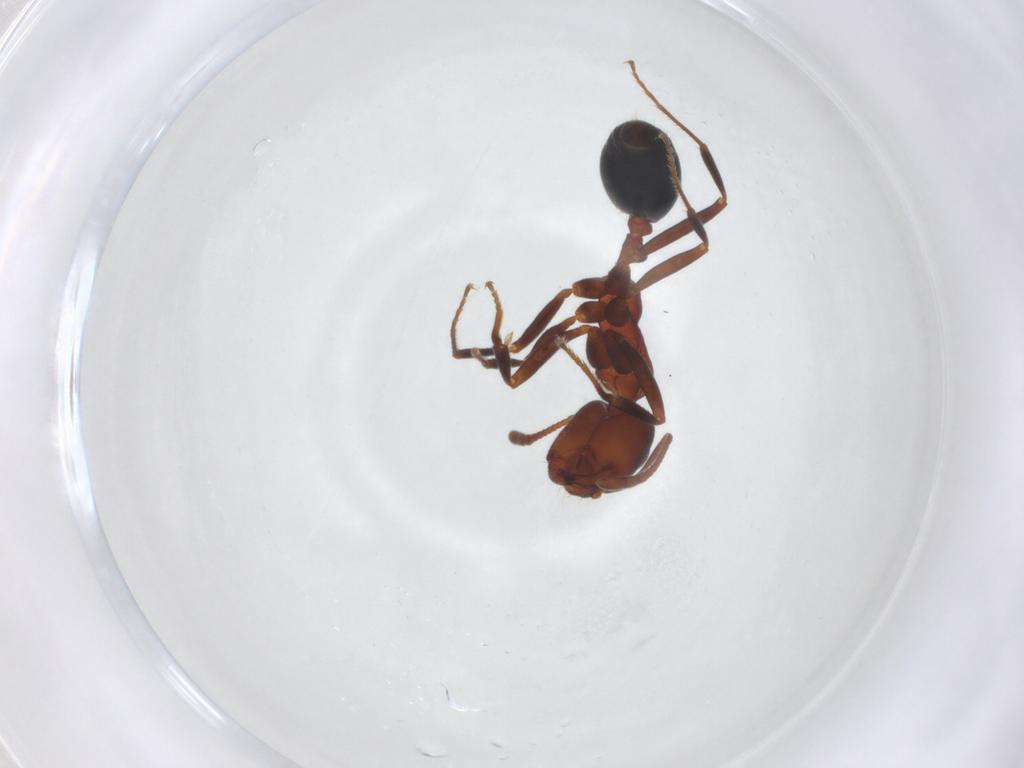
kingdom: Animalia
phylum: Arthropoda
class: Insecta
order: Hymenoptera
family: Formicidae
